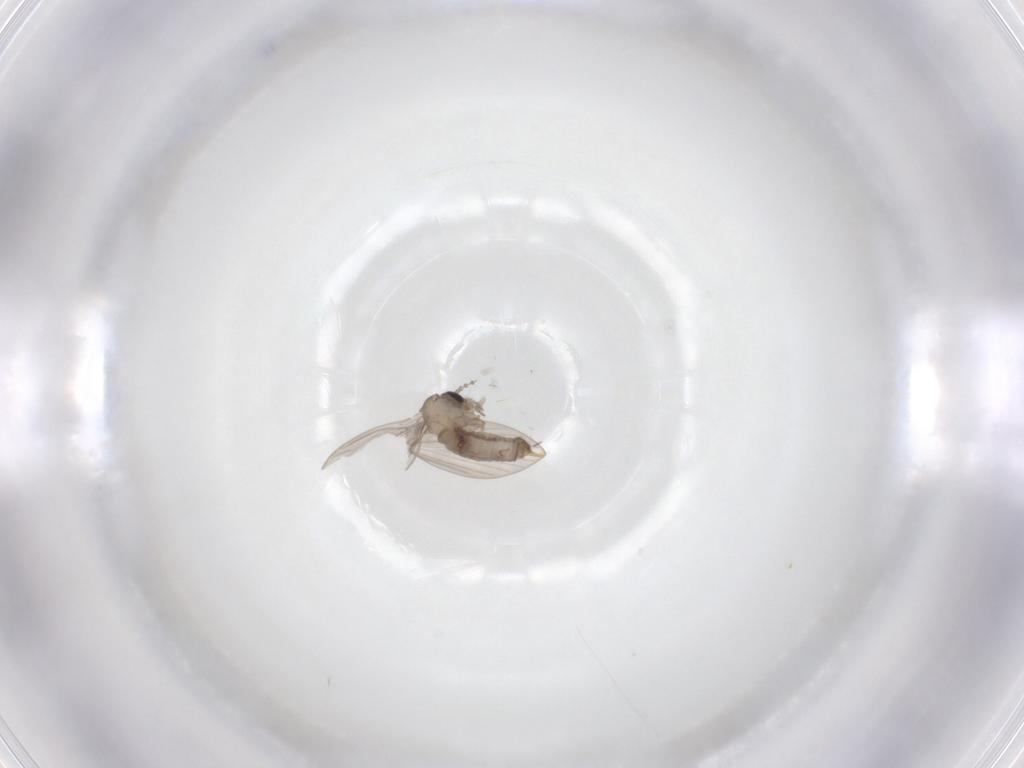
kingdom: Animalia
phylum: Arthropoda
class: Insecta
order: Diptera
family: Psychodidae
